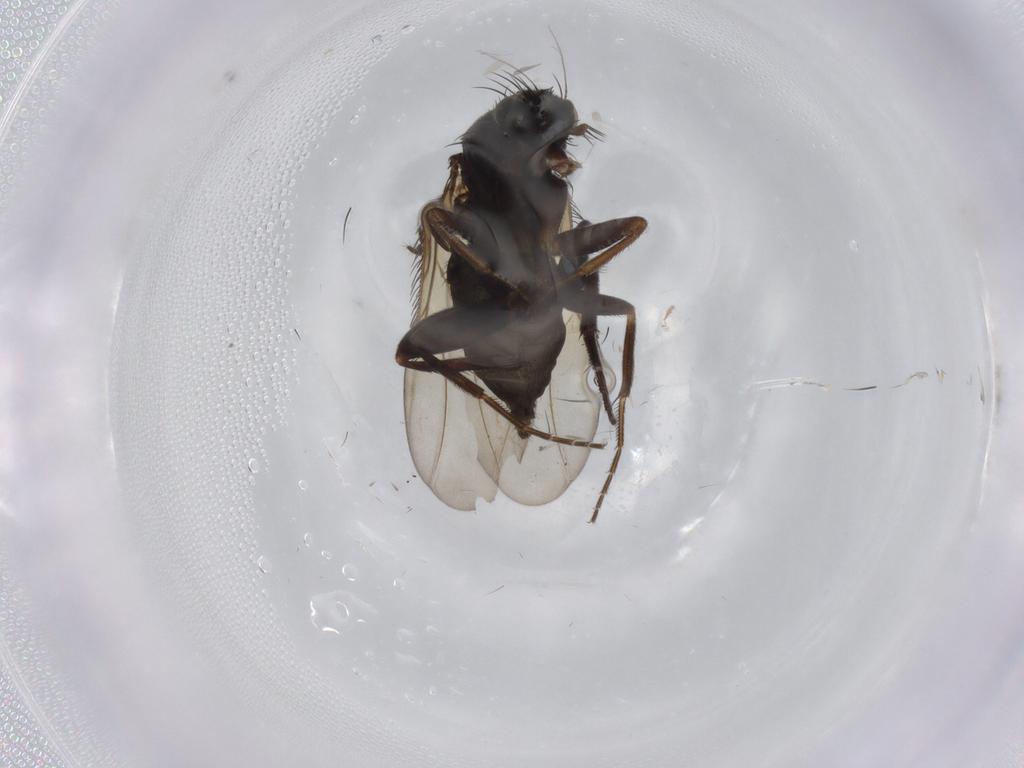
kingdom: Animalia
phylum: Arthropoda
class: Insecta
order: Diptera
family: Phoridae
